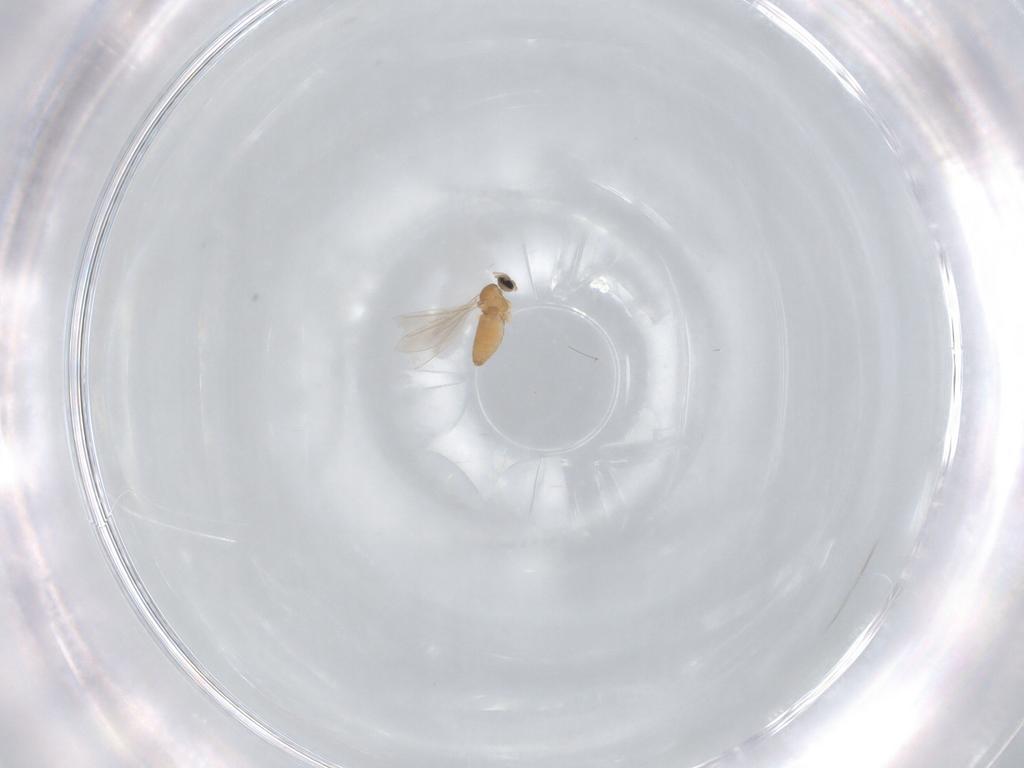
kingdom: Animalia
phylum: Arthropoda
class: Insecta
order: Diptera
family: Cecidomyiidae
